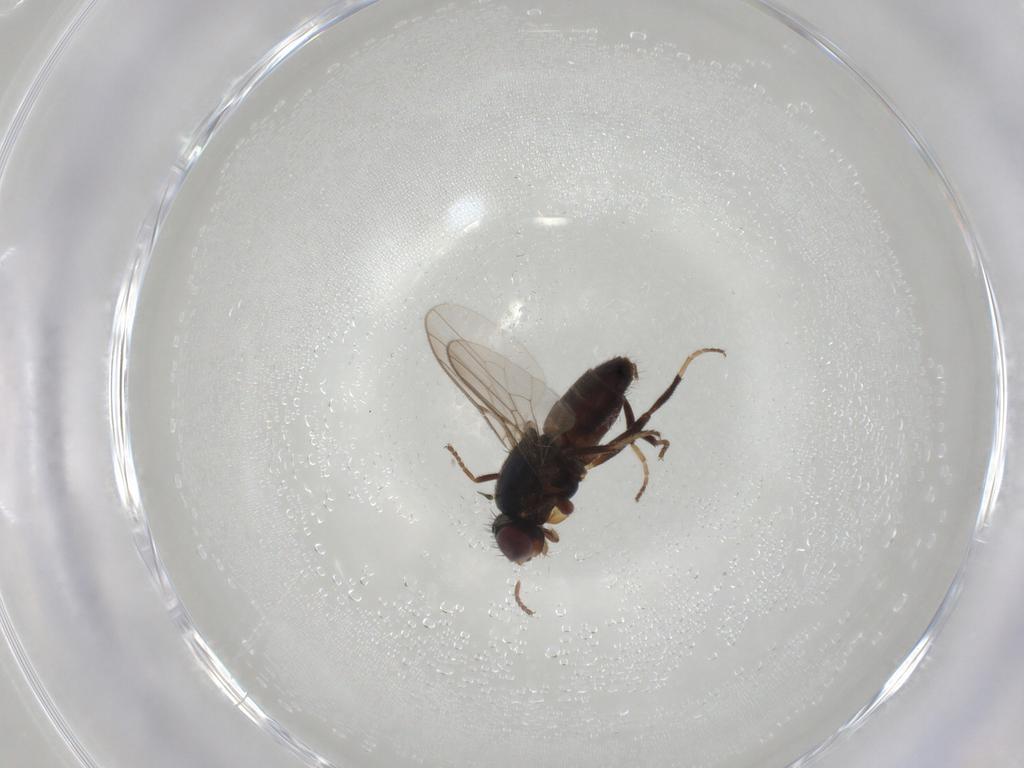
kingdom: Animalia
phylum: Arthropoda
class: Insecta
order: Diptera
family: Chloropidae
